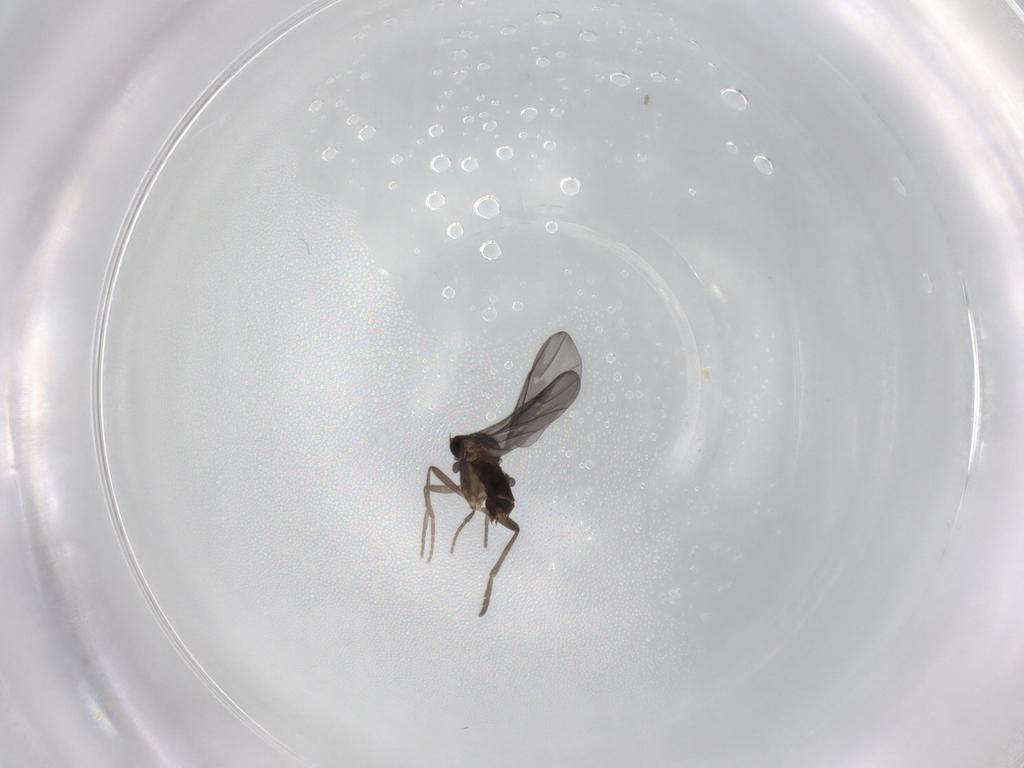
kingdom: Animalia
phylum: Arthropoda
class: Insecta
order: Diptera
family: Phoridae
